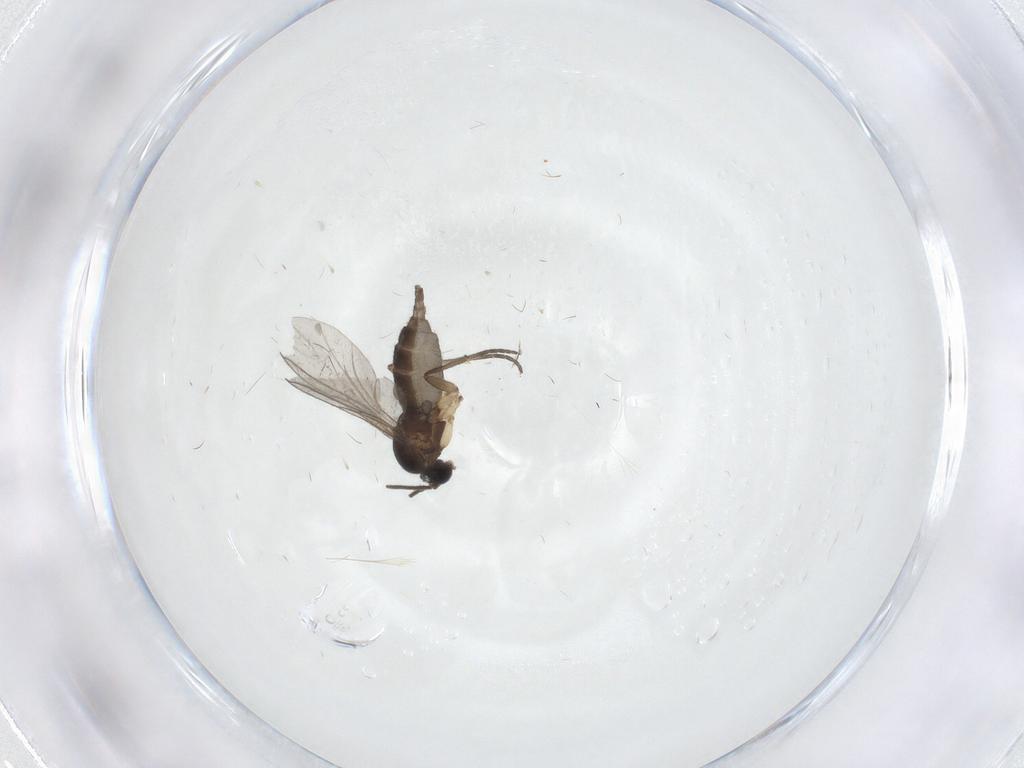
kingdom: Animalia
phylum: Arthropoda
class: Insecta
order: Diptera
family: Sciaridae
